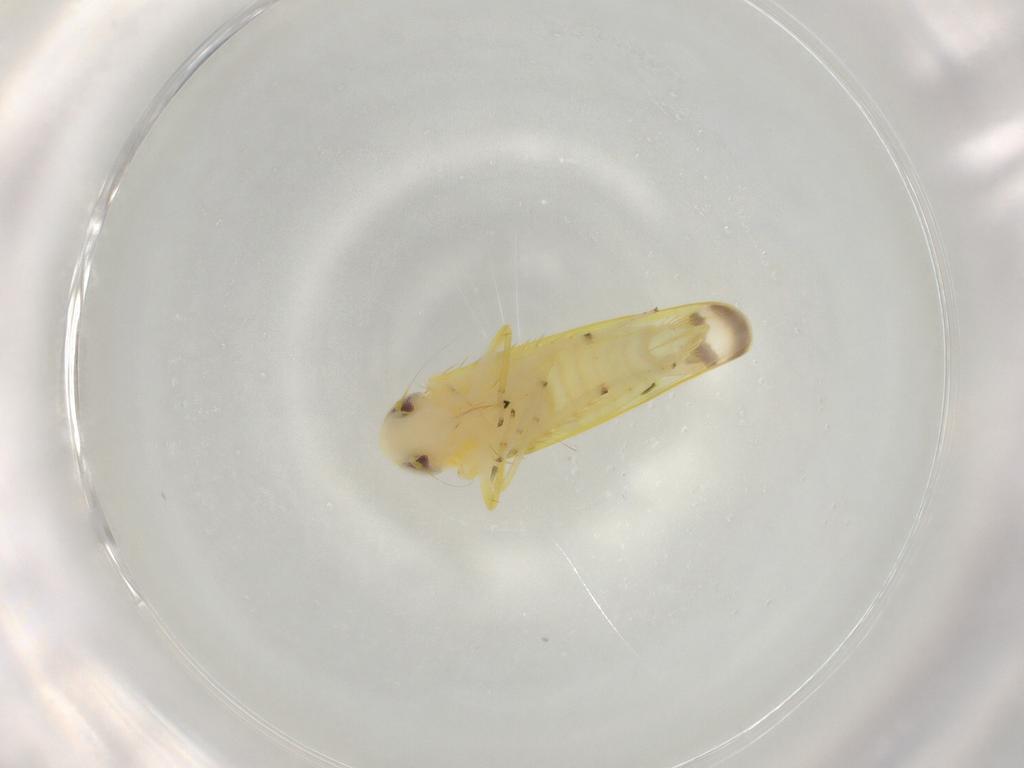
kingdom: Animalia
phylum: Arthropoda
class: Insecta
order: Hemiptera
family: Cicadellidae
